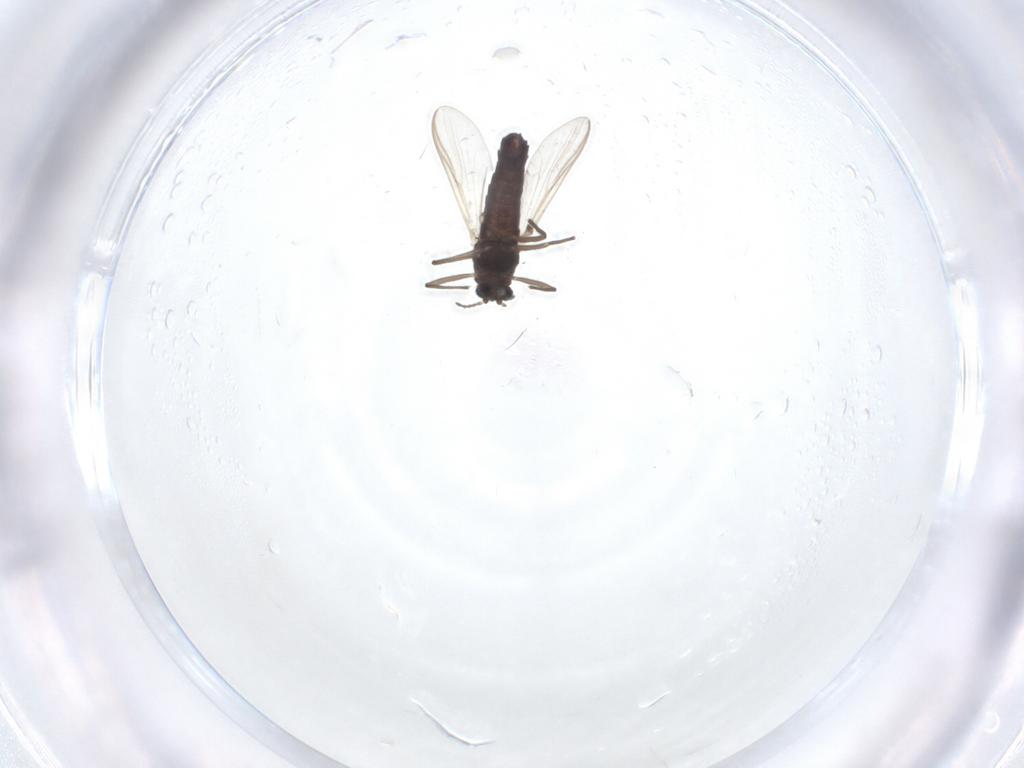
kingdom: Animalia
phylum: Arthropoda
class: Insecta
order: Diptera
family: Chironomidae
